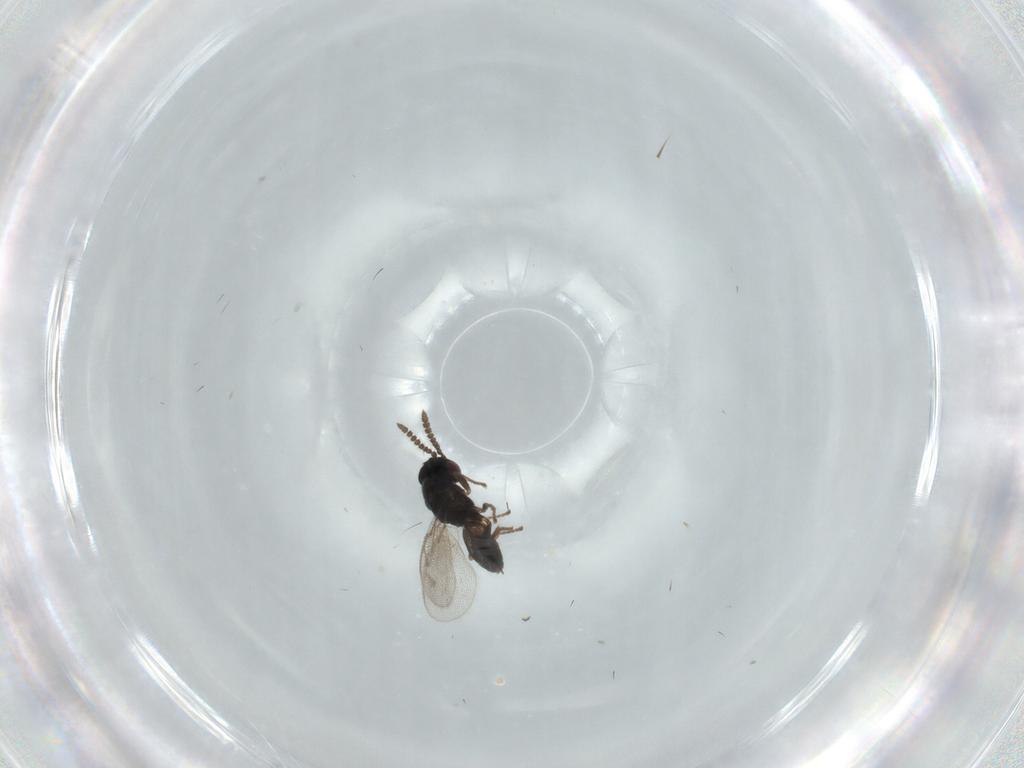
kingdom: Animalia
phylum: Arthropoda
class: Insecta
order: Hymenoptera
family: Pirenidae
